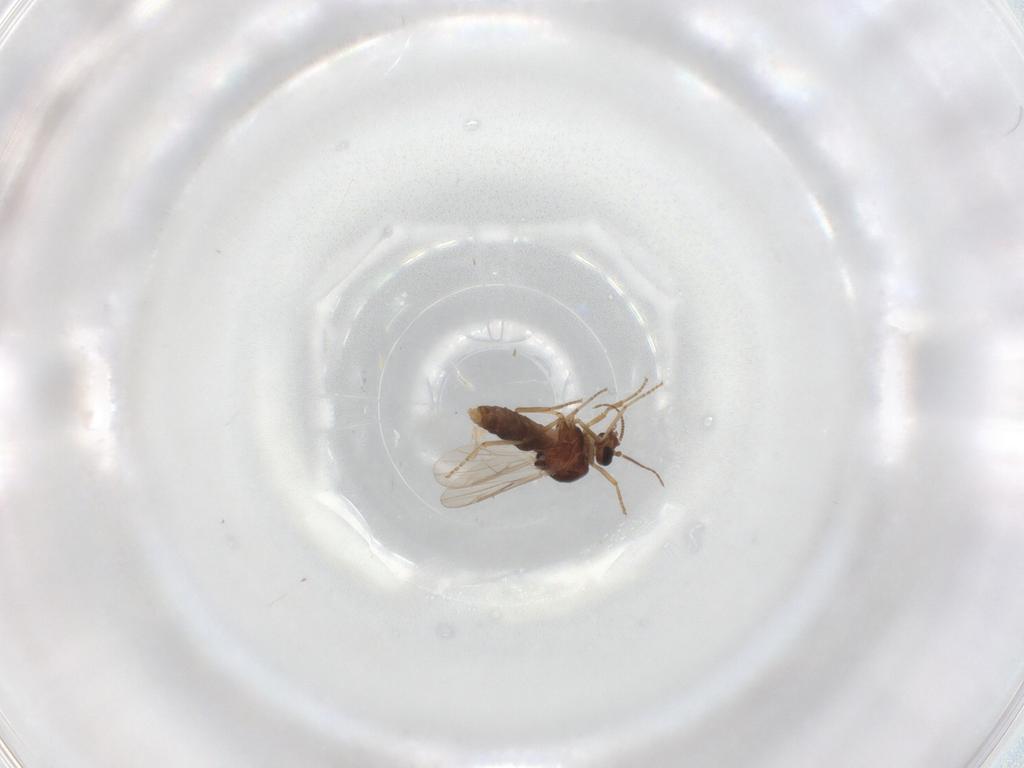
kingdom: Animalia
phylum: Arthropoda
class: Insecta
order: Diptera
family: Ceratopogonidae
